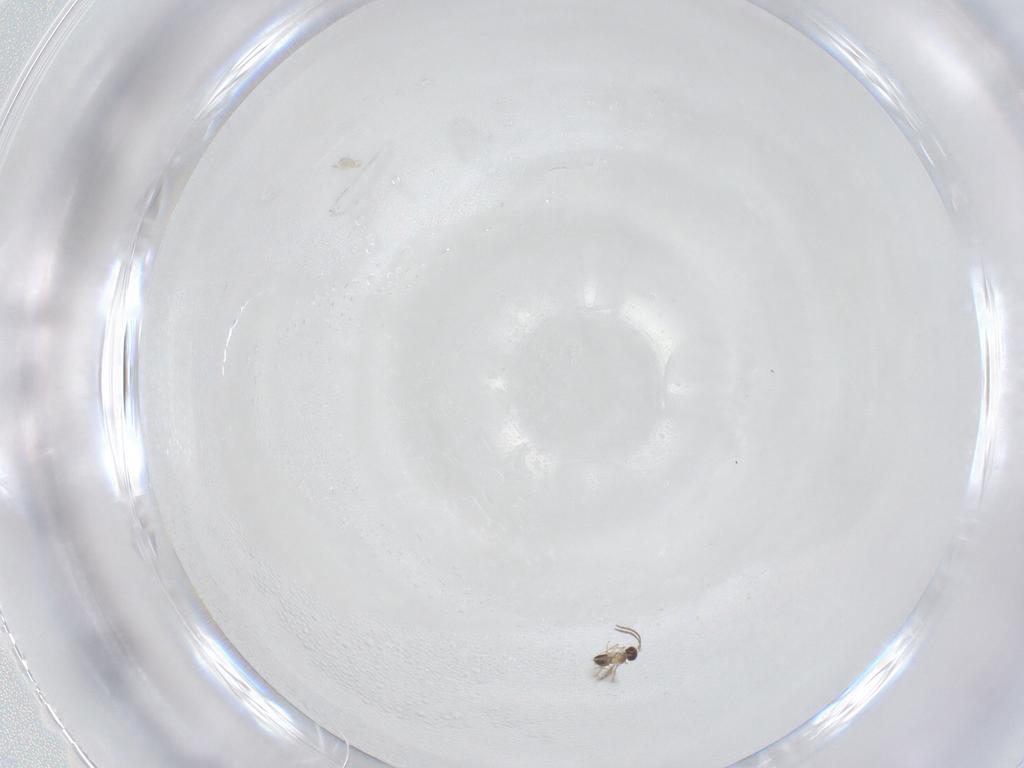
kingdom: Animalia
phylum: Arthropoda
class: Insecta
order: Hymenoptera
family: Mymaridae
